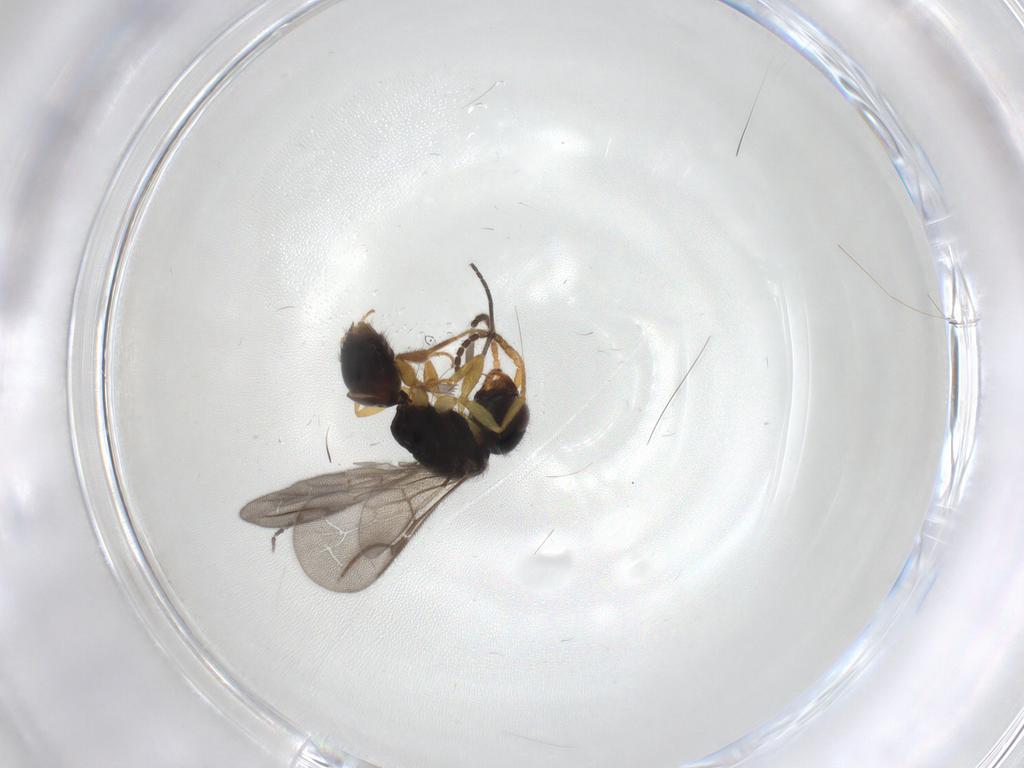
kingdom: Animalia
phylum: Arthropoda
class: Insecta
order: Hymenoptera
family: Bethylidae
